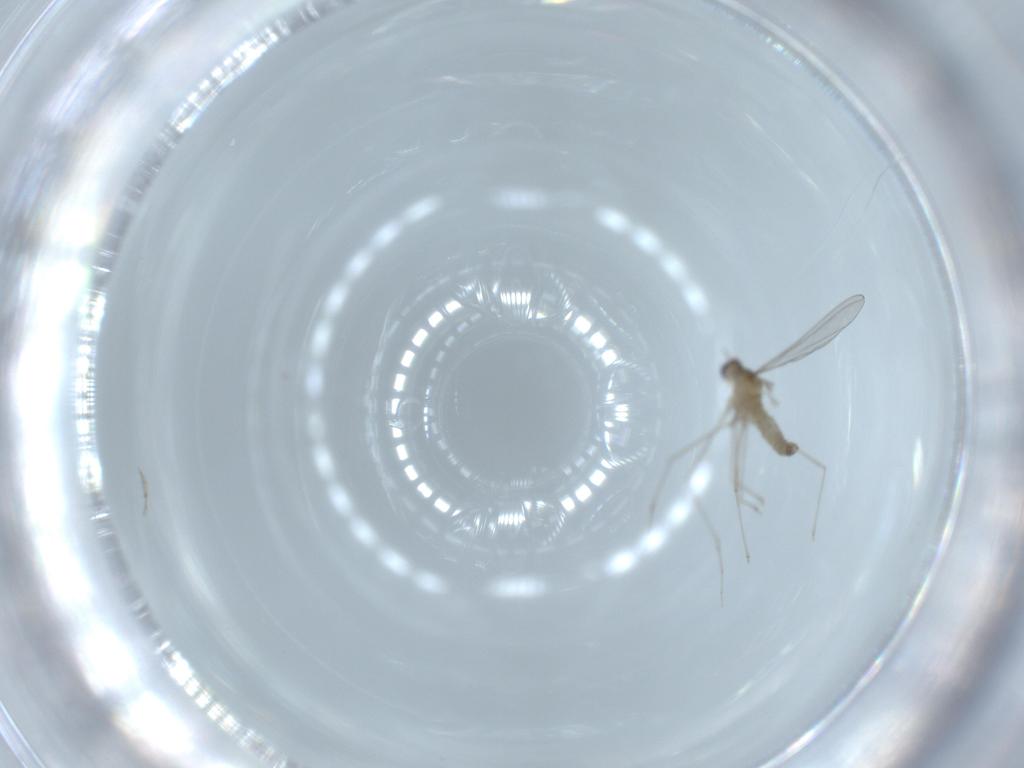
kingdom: Animalia
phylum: Arthropoda
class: Insecta
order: Diptera
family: Cecidomyiidae
